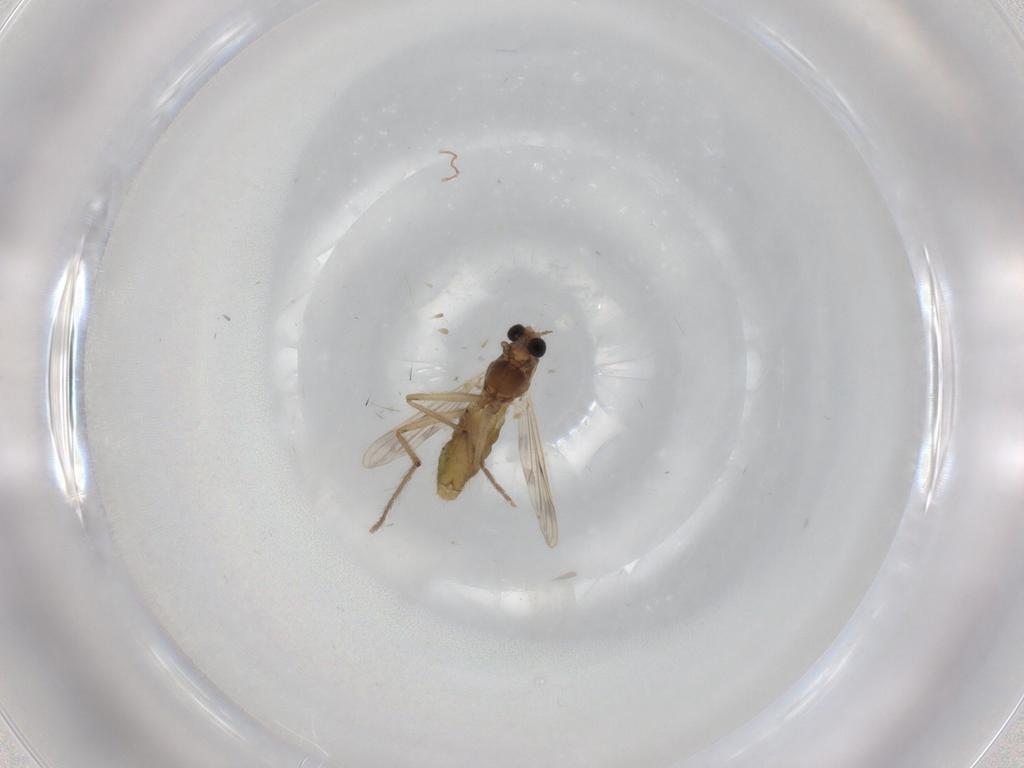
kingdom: Animalia
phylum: Arthropoda
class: Insecta
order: Diptera
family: Chironomidae
